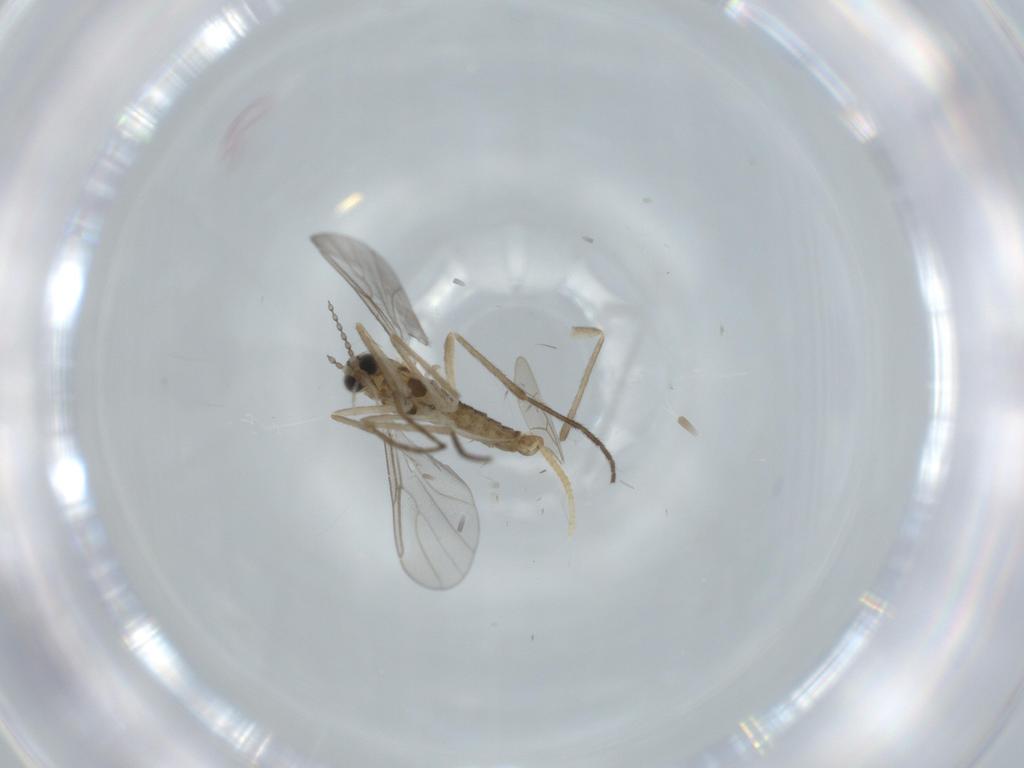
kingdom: Animalia
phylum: Arthropoda
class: Insecta
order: Diptera
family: Cecidomyiidae
